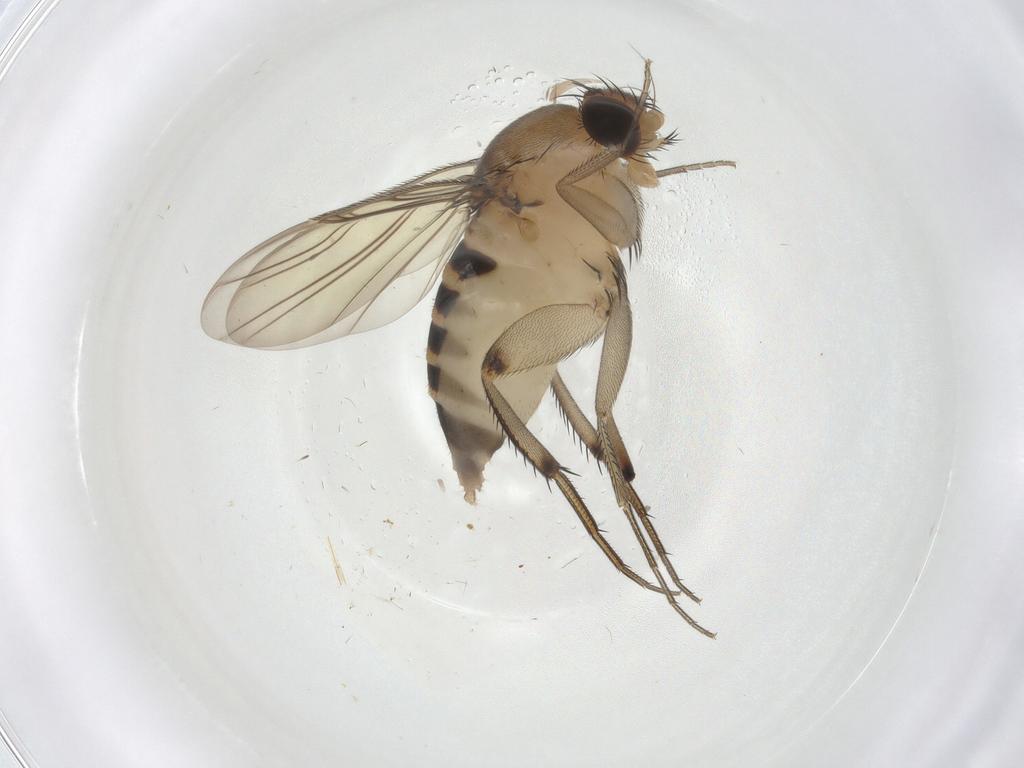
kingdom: Animalia
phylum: Arthropoda
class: Insecta
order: Diptera
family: Phoridae
